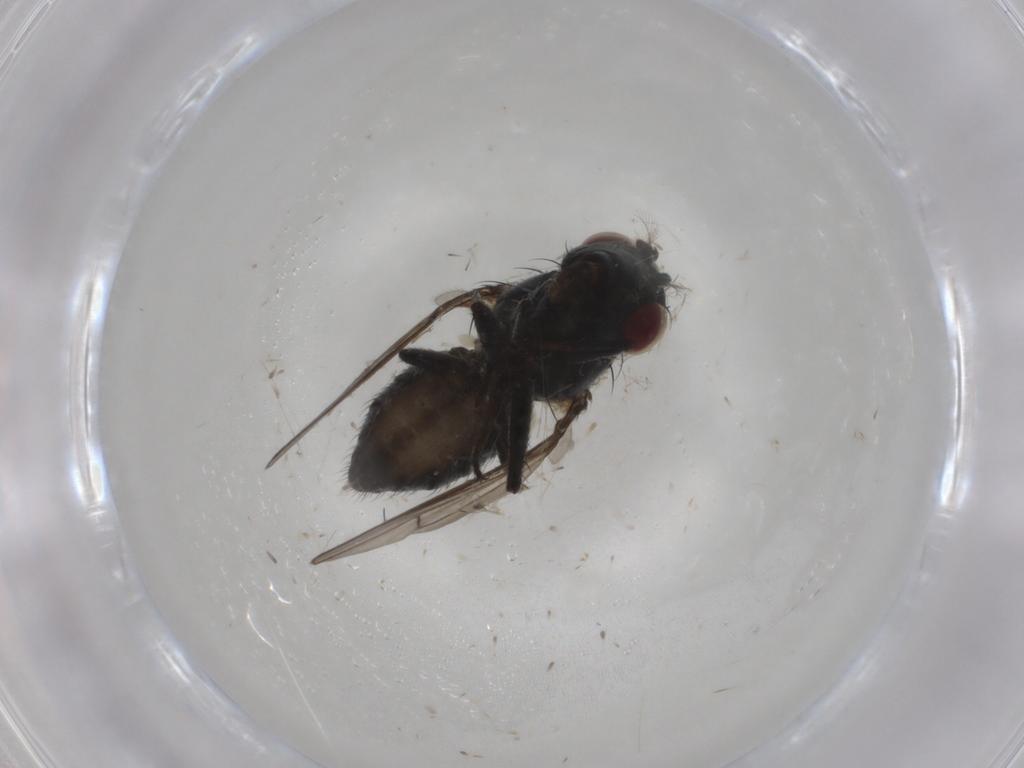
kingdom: Animalia
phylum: Arthropoda
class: Insecta
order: Diptera
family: Ephydridae
